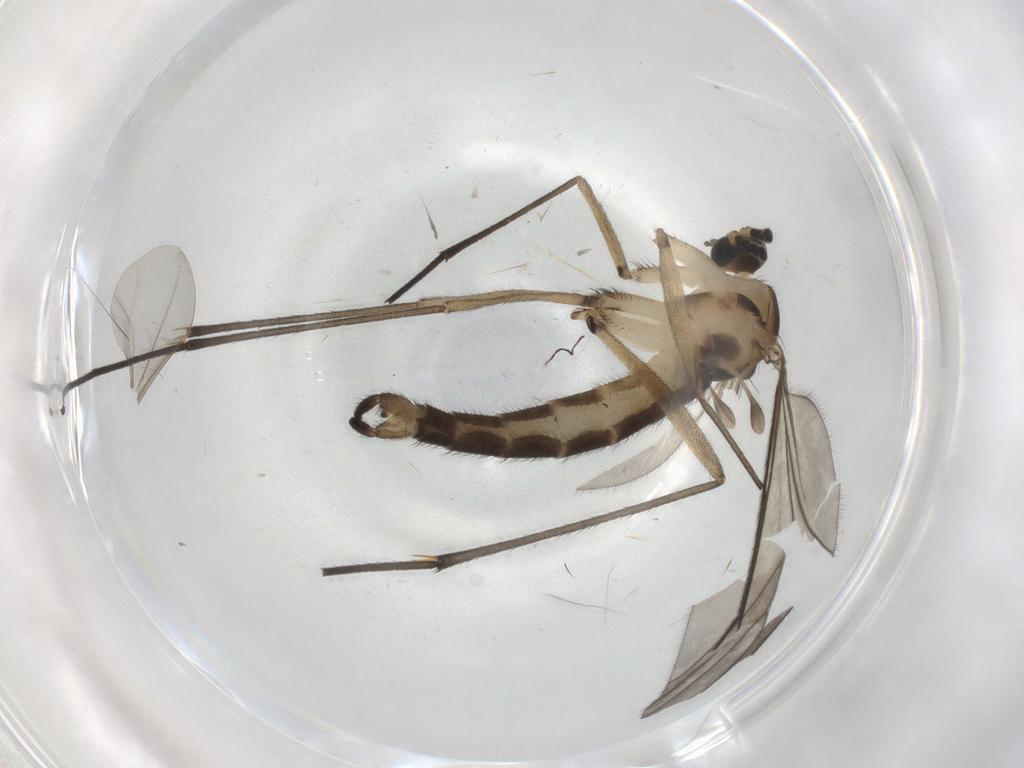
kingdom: Animalia
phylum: Arthropoda
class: Insecta
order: Diptera
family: Sciaridae
